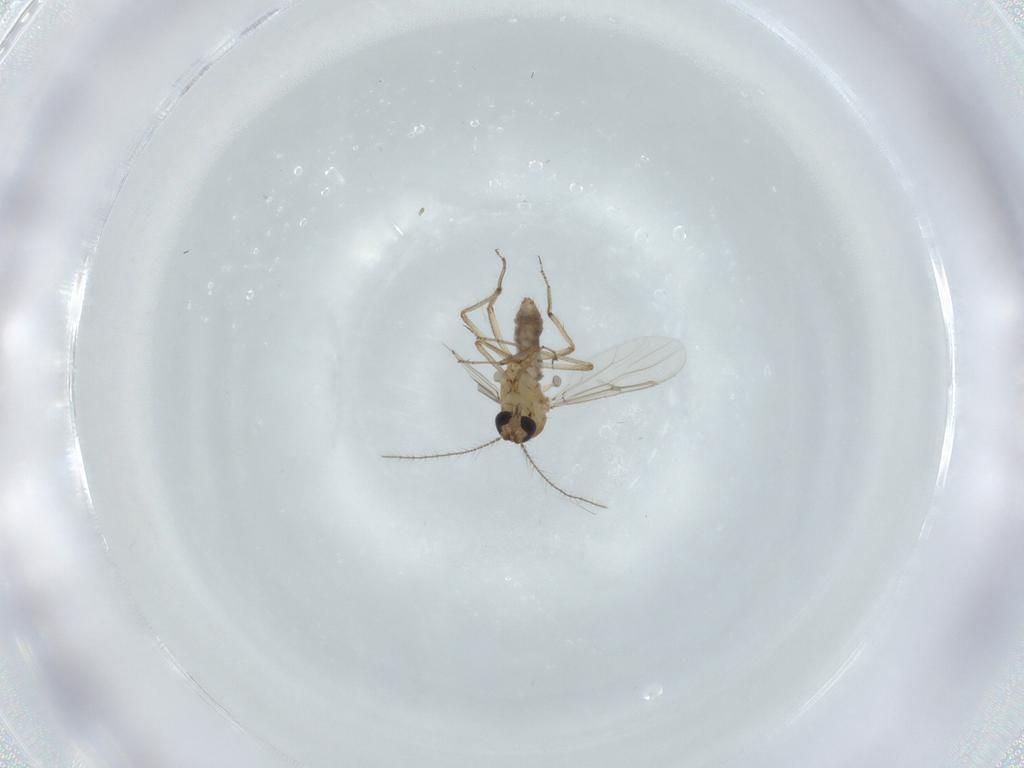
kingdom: Animalia
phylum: Arthropoda
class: Insecta
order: Diptera
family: Ceratopogonidae
